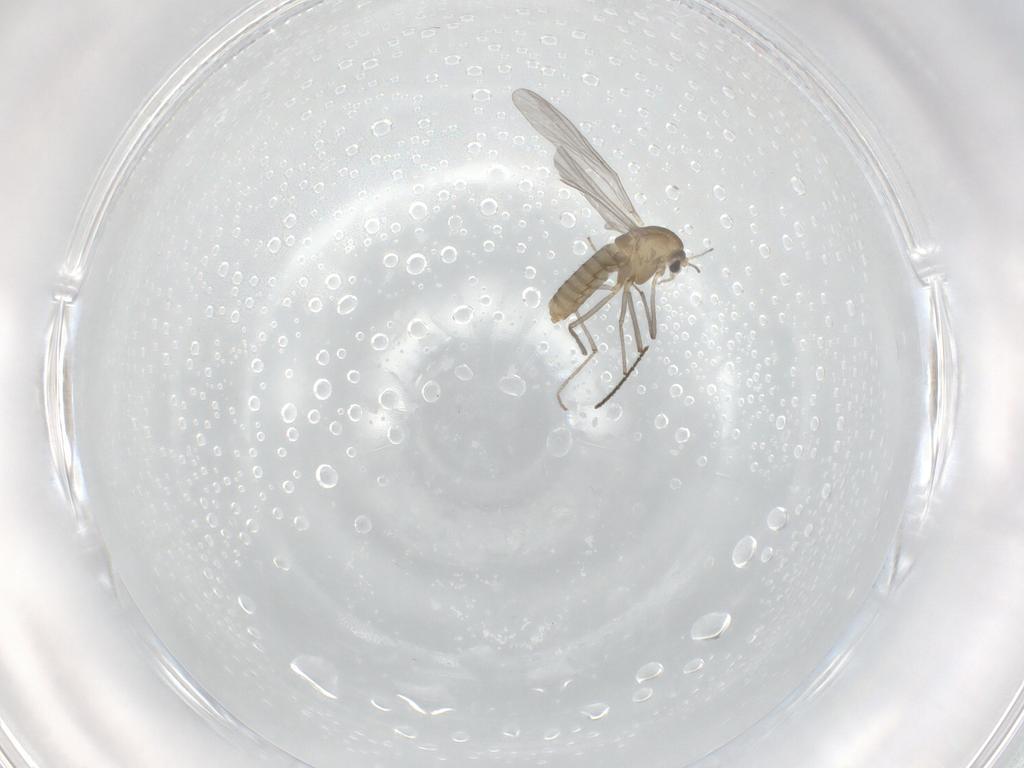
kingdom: Animalia
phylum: Arthropoda
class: Insecta
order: Diptera
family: Chironomidae
